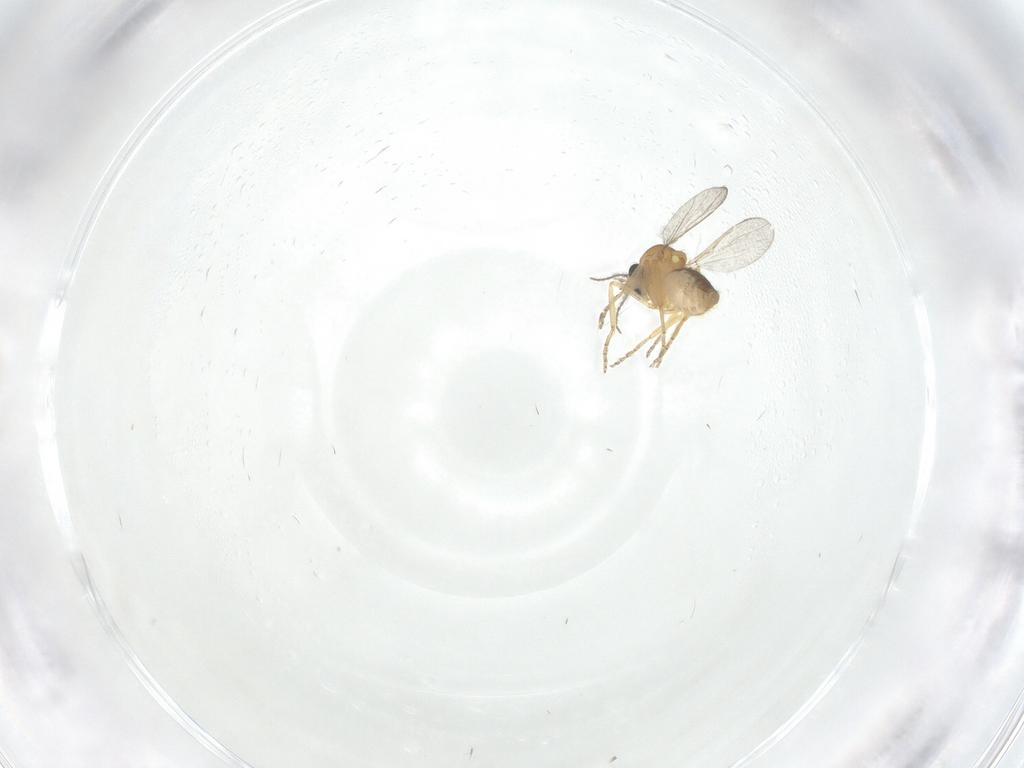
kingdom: Animalia
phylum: Arthropoda
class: Insecta
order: Diptera
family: Ceratopogonidae
